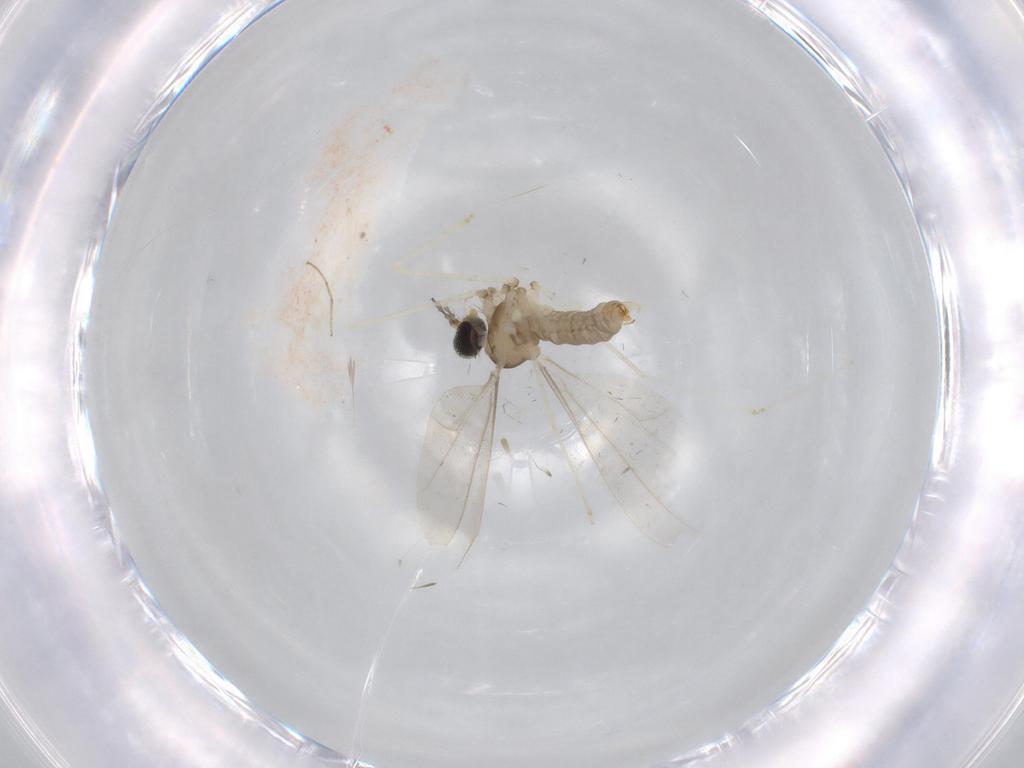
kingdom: Animalia
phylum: Arthropoda
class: Insecta
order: Diptera
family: Cecidomyiidae
